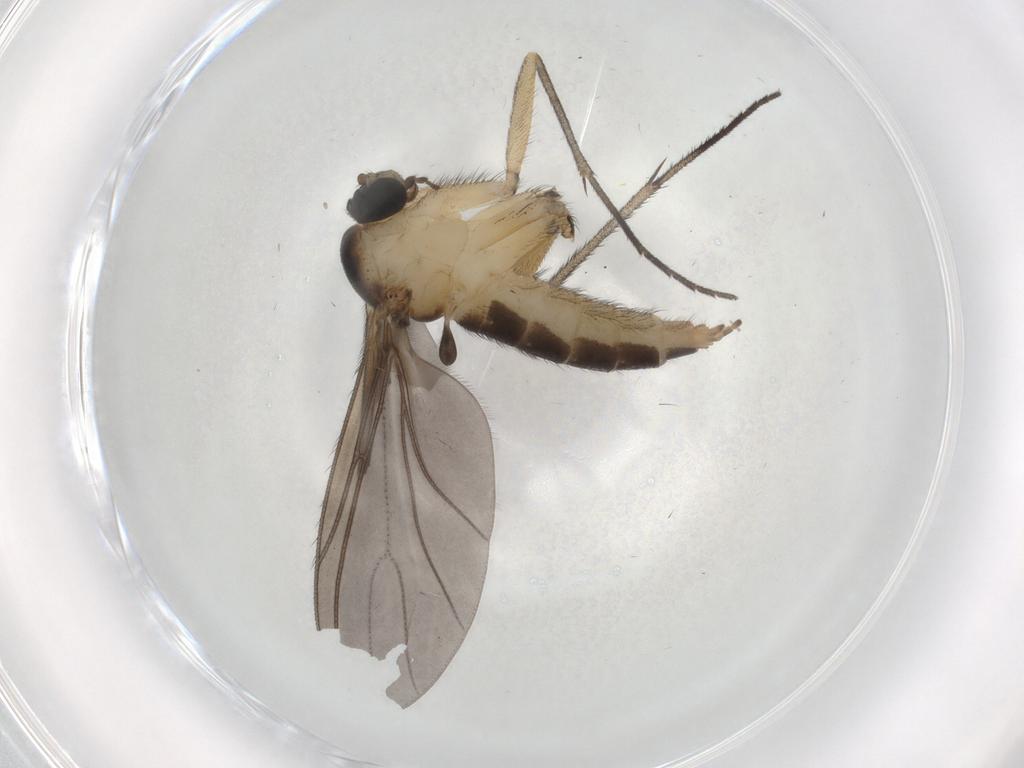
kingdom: Animalia
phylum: Arthropoda
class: Insecta
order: Diptera
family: Sciaridae
